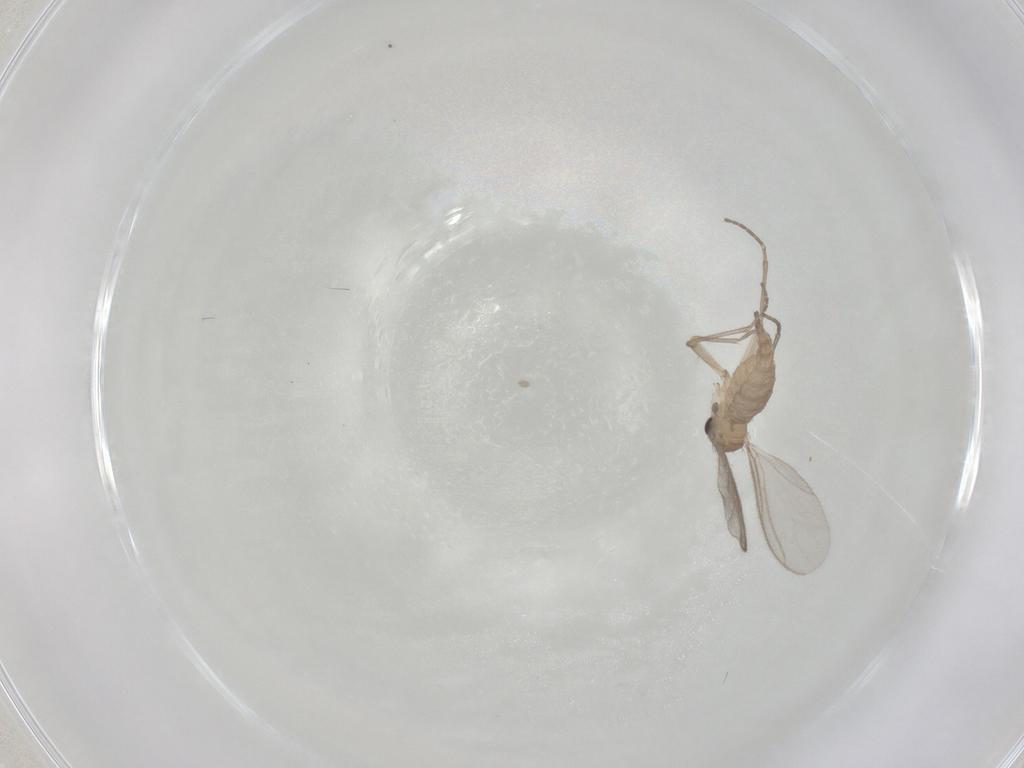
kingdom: Animalia
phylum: Arthropoda
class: Insecta
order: Diptera
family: Sciaridae
